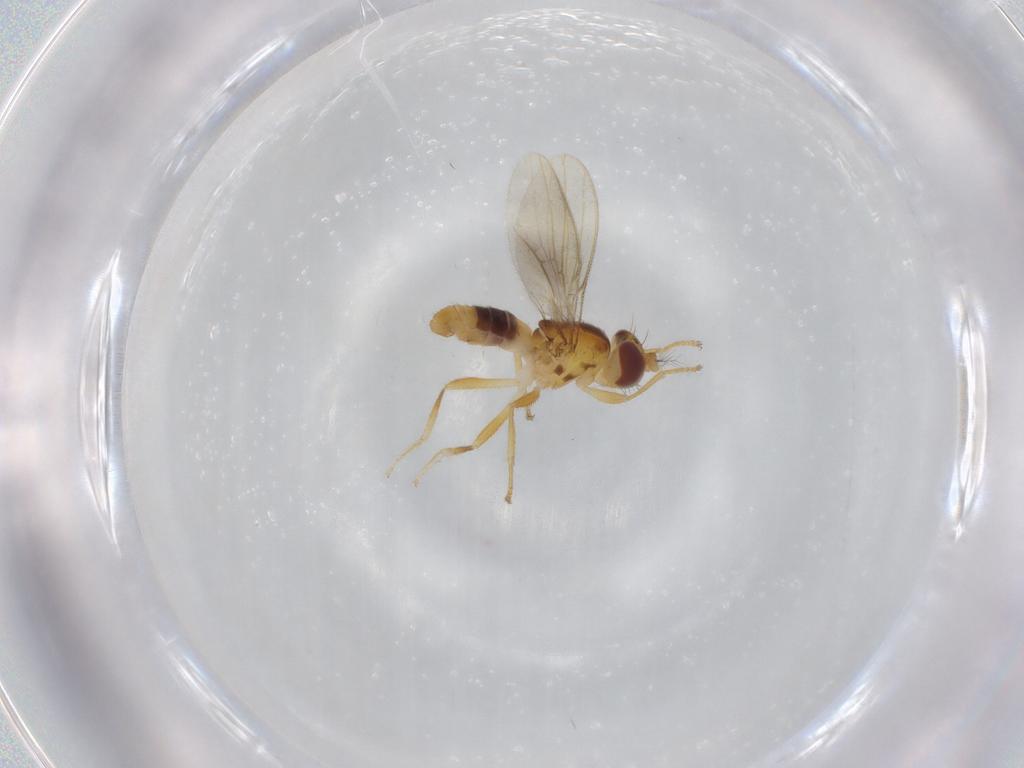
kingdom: Animalia
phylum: Arthropoda
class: Insecta
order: Diptera
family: Periscelididae
